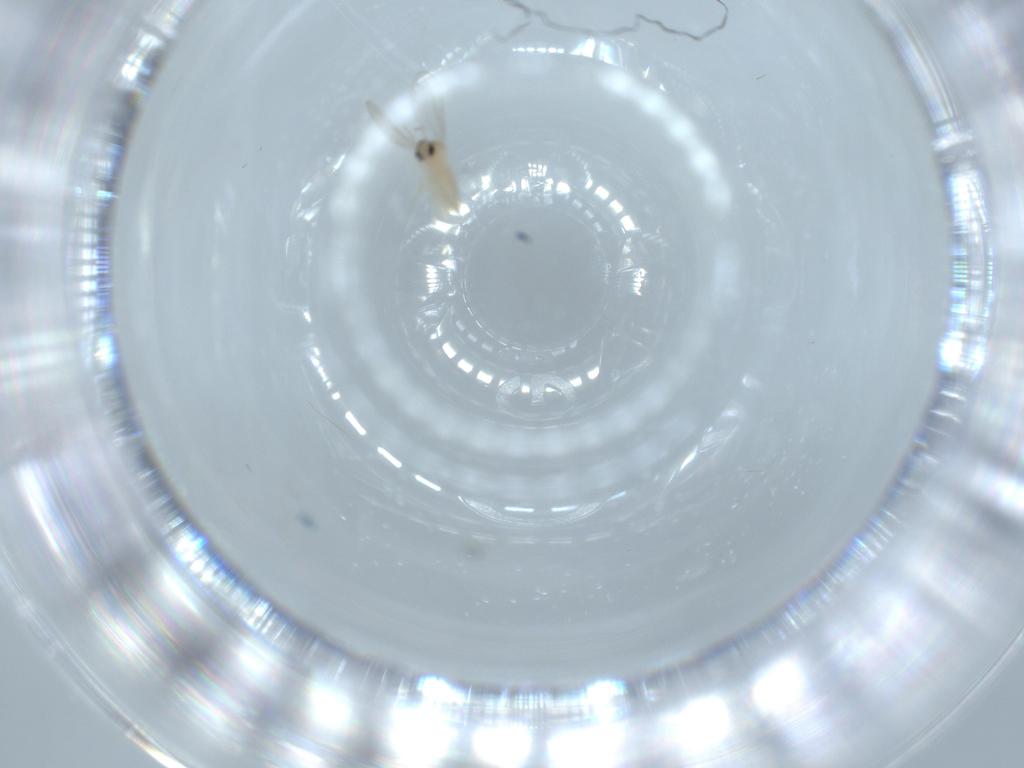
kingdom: Animalia
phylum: Arthropoda
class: Insecta
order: Diptera
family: Cecidomyiidae
